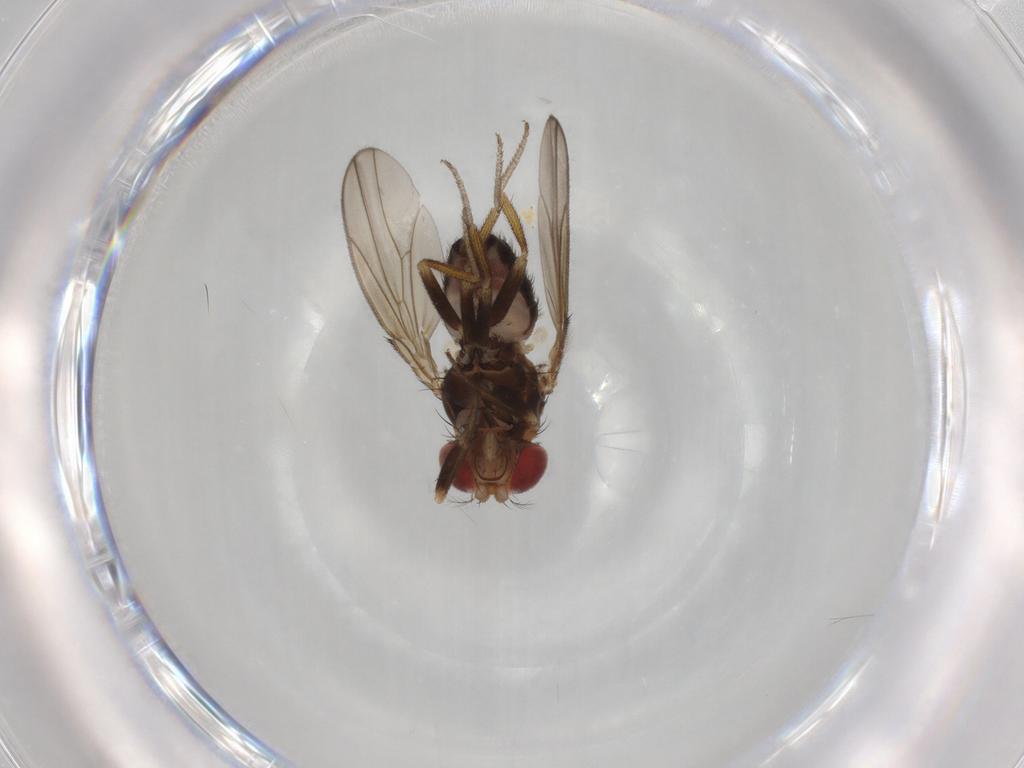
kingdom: Animalia
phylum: Arthropoda
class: Insecta
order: Diptera
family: Drosophilidae
